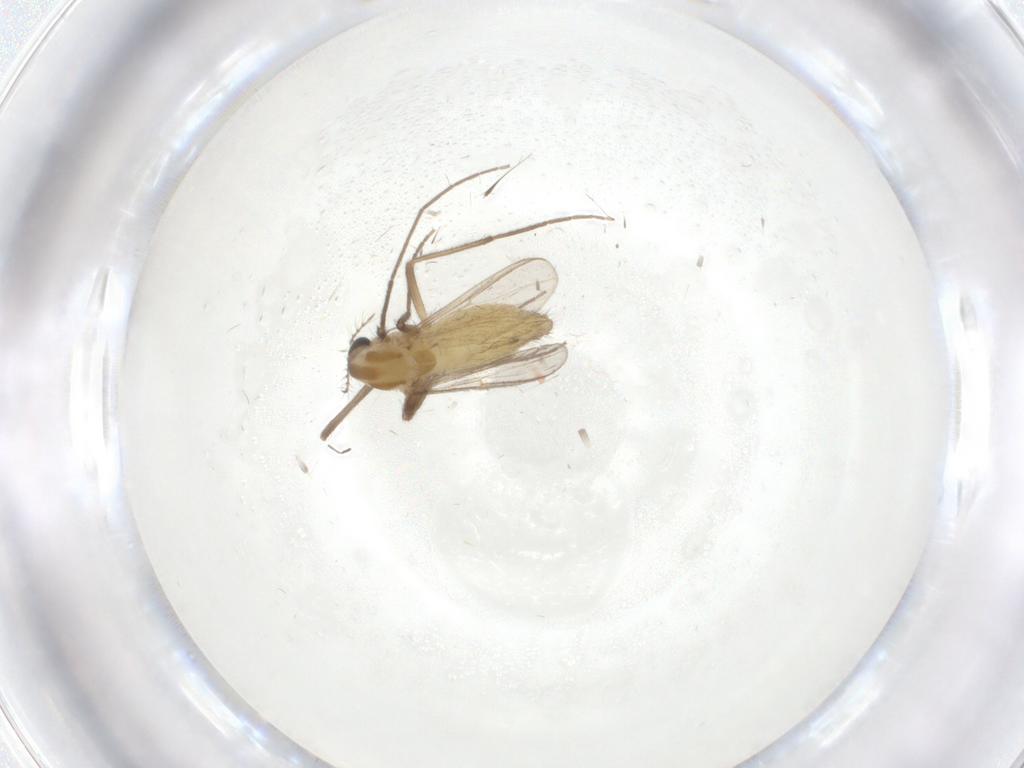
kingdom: Animalia
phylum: Arthropoda
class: Insecta
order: Diptera
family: Chironomidae
